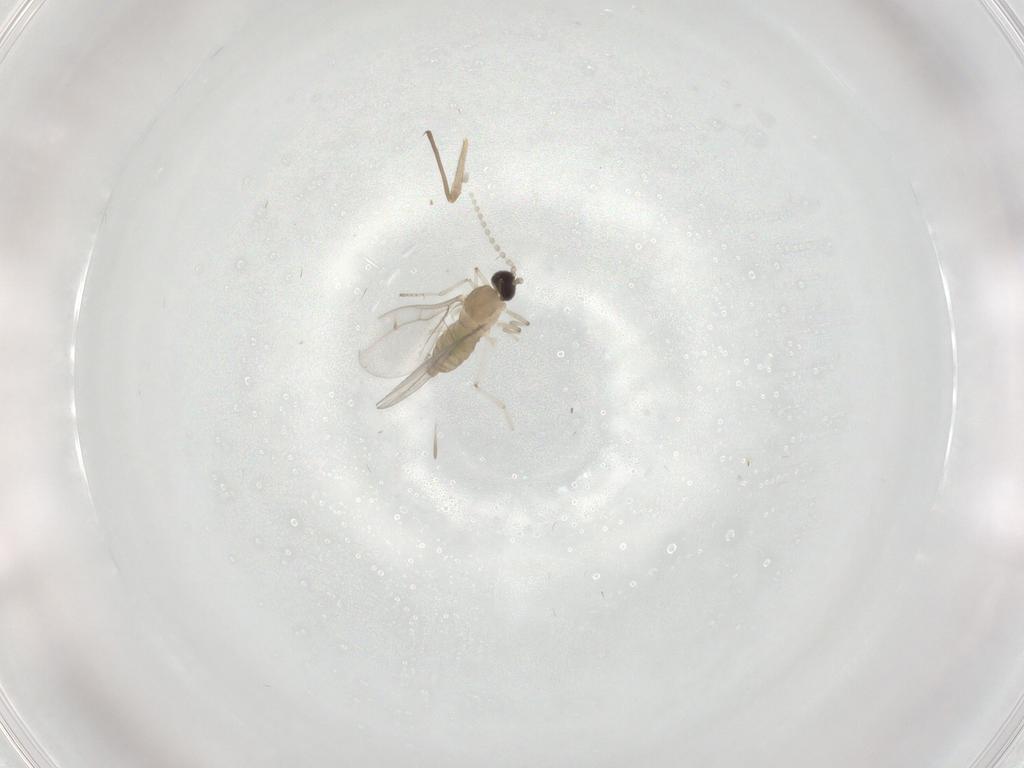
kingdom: Animalia
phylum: Arthropoda
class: Insecta
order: Diptera
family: Cecidomyiidae
